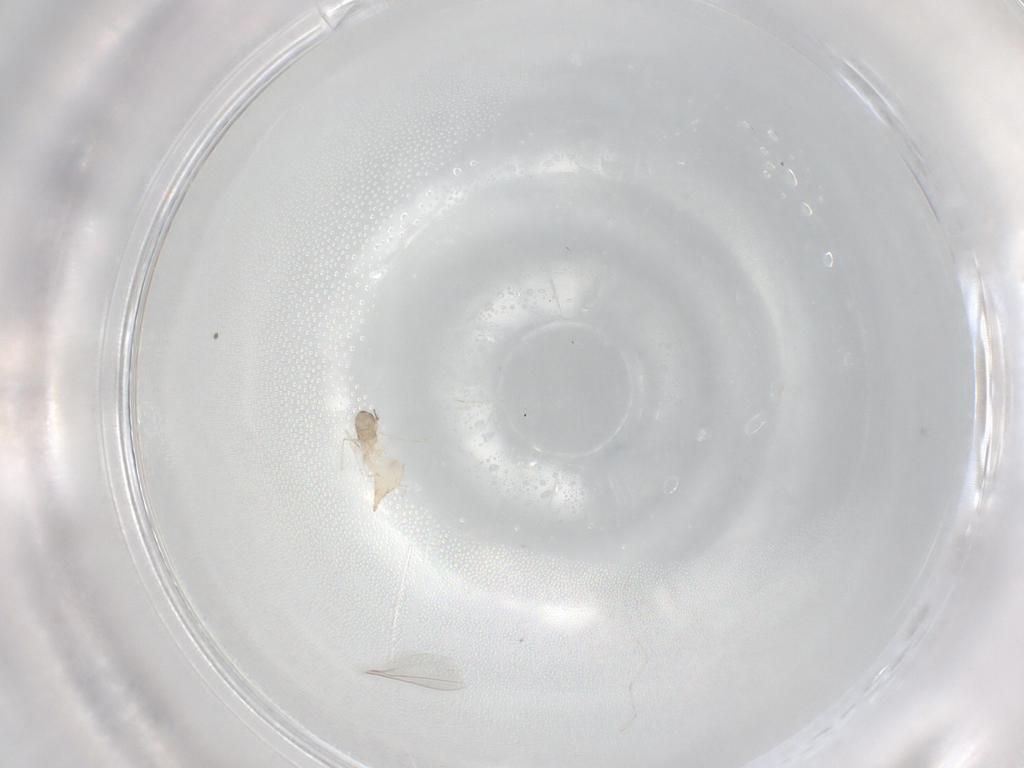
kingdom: Animalia
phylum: Arthropoda
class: Insecta
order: Diptera
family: Cecidomyiidae
